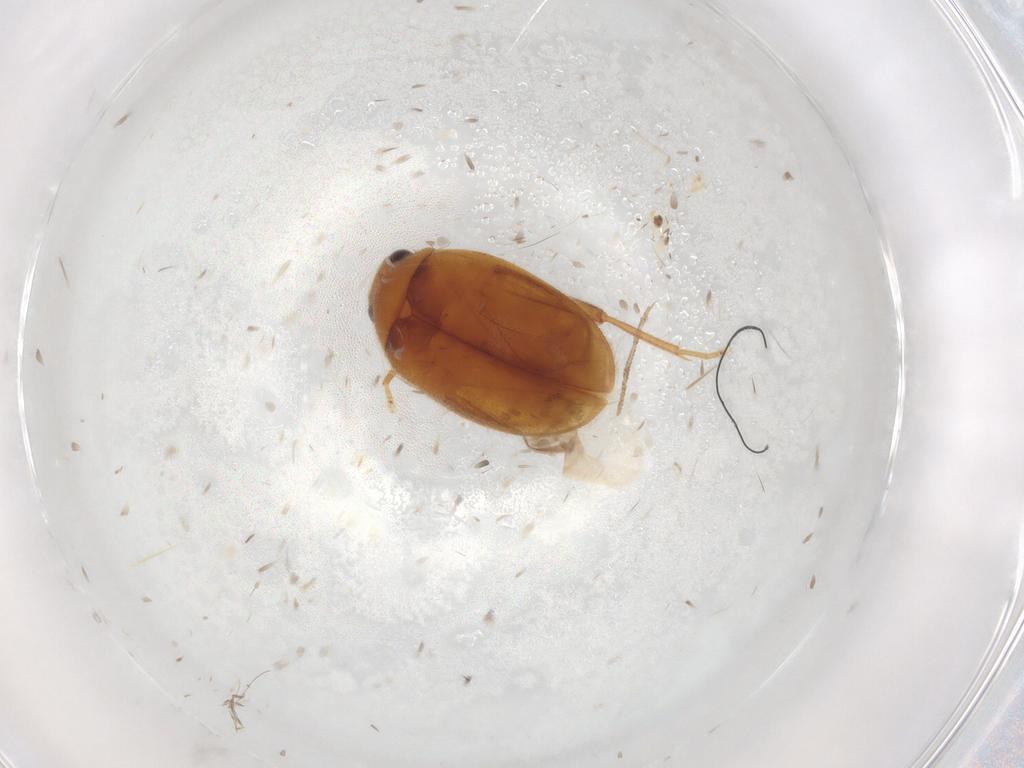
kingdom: Animalia
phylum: Arthropoda
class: Insecta
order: Coleoptera
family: Scirtidae
